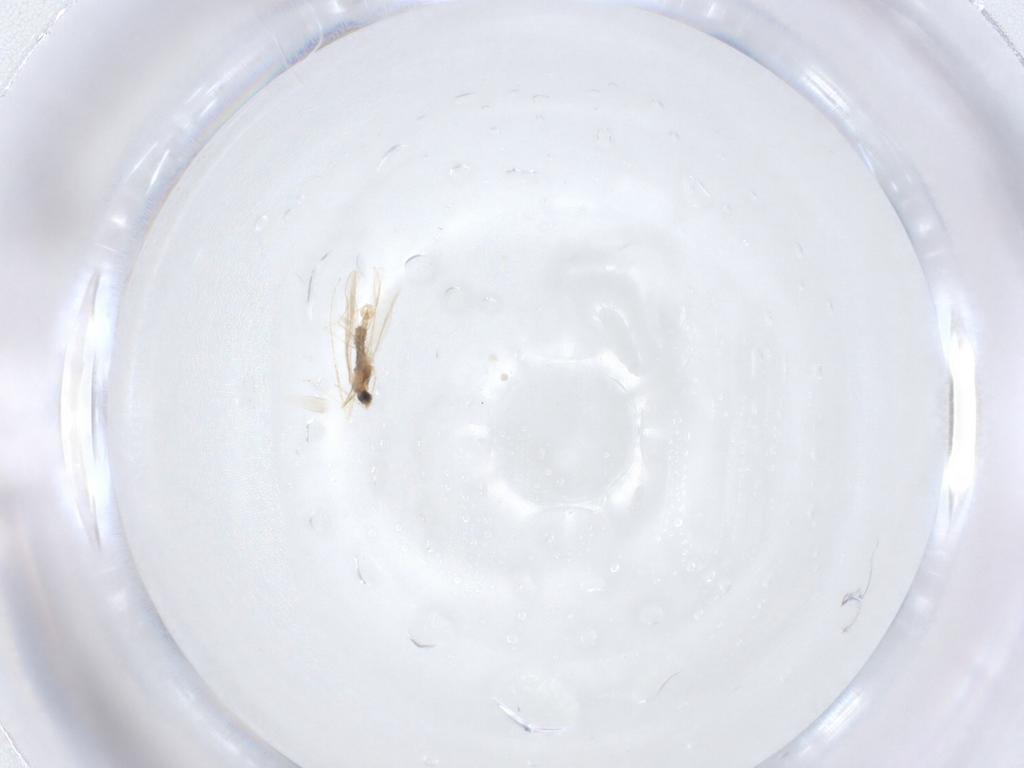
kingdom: Animalia
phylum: Arthropoda
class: Insecta
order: Diptera
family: Cecidomyiidae
